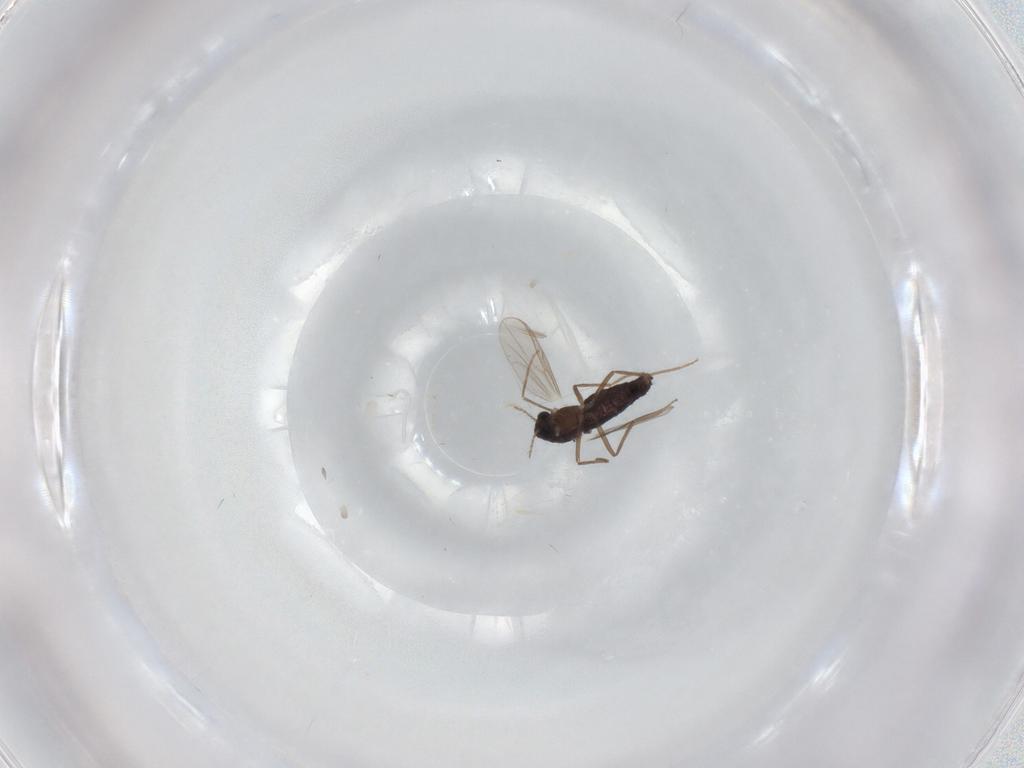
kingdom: Animalia
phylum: Arthropoda
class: Insecta
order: Diptera
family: Chironomidae
